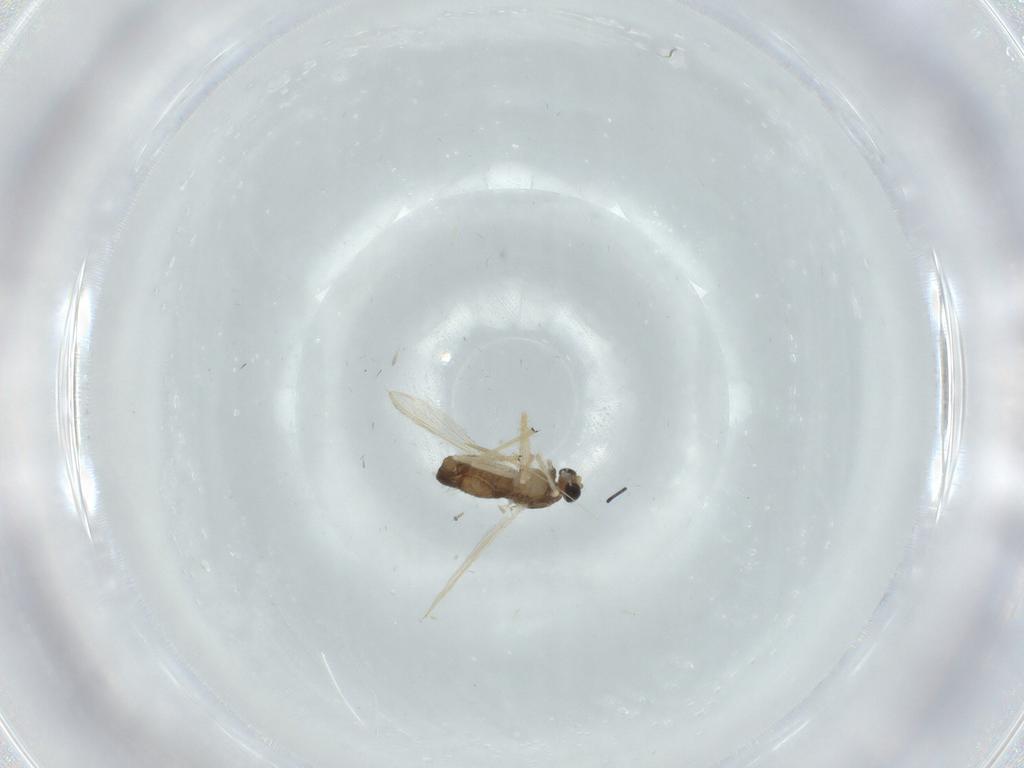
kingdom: Animalia
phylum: Arthropoda
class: Insecta
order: Diptera
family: Chironomidae
